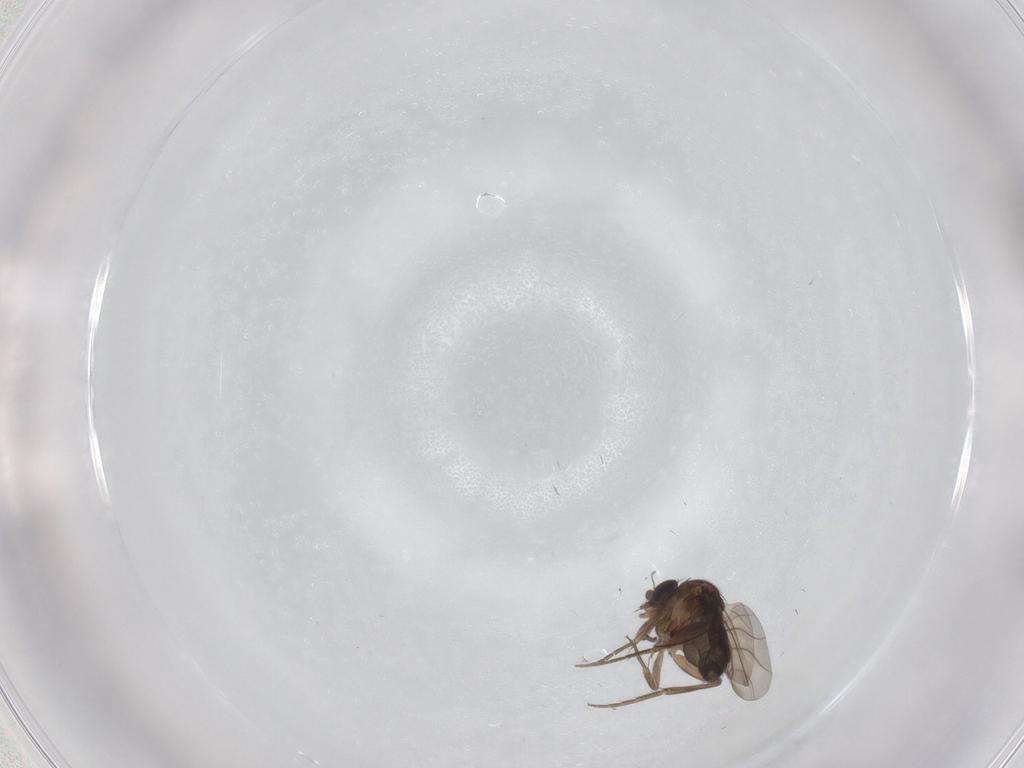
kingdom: Animalia
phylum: Arthropoda
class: Insecta
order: Diptera
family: Phoridae
